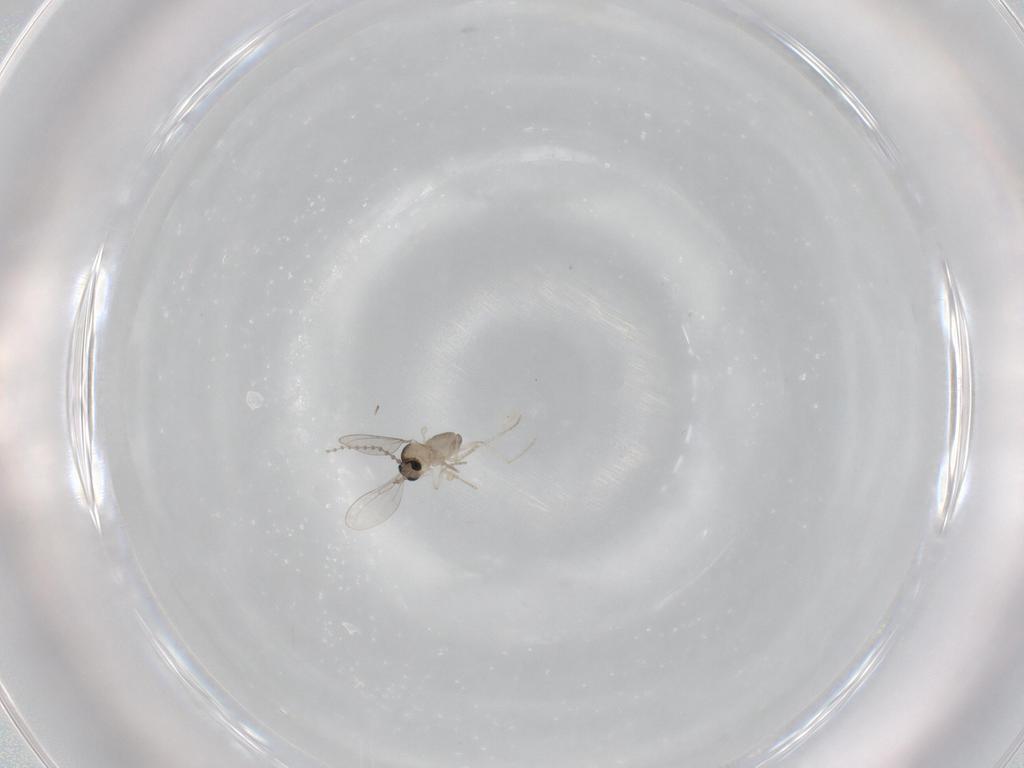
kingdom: Animalia
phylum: Arthropoda
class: Insecta
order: Diptera
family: Cecidomyiidae
